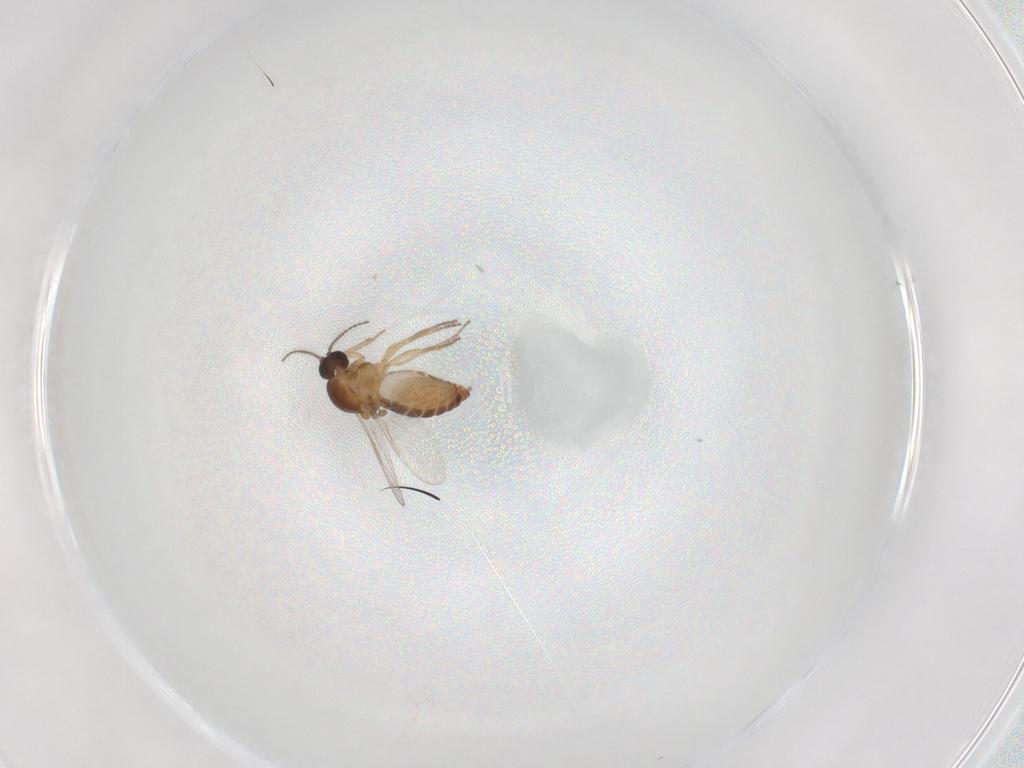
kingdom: Animalia
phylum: Arthropoda
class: Insecta
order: Diptera
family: Ceratopogonidae
